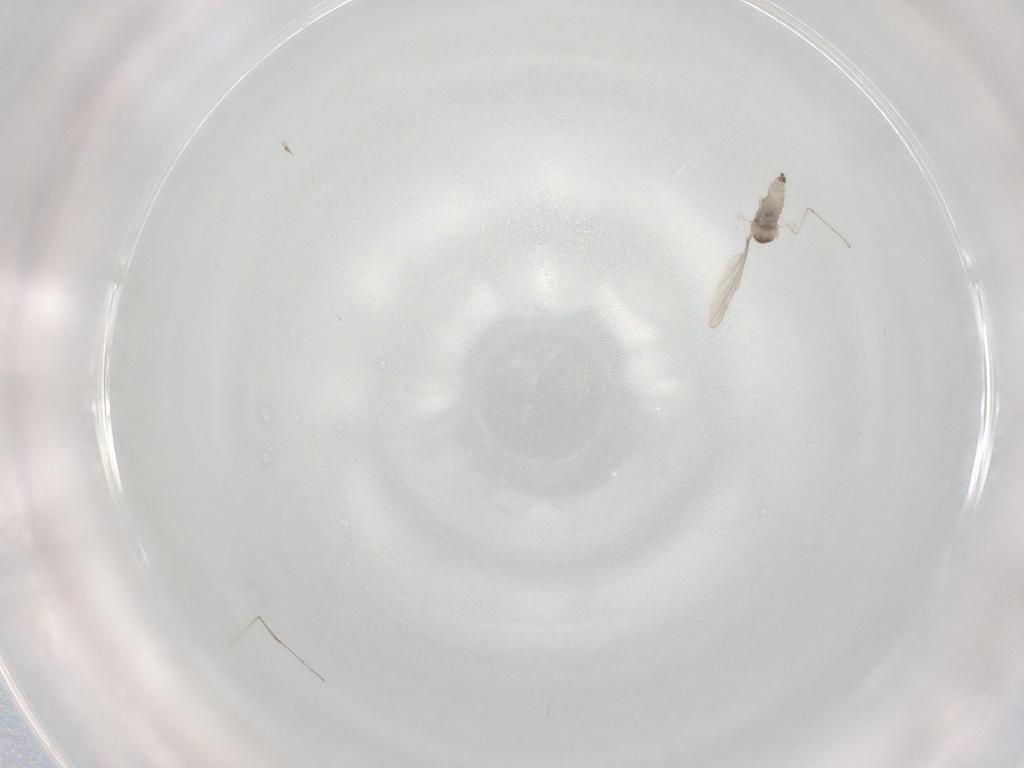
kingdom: Animalia
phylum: Arthropoda
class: Insecta
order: Diptera
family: Cecidomyiidae
